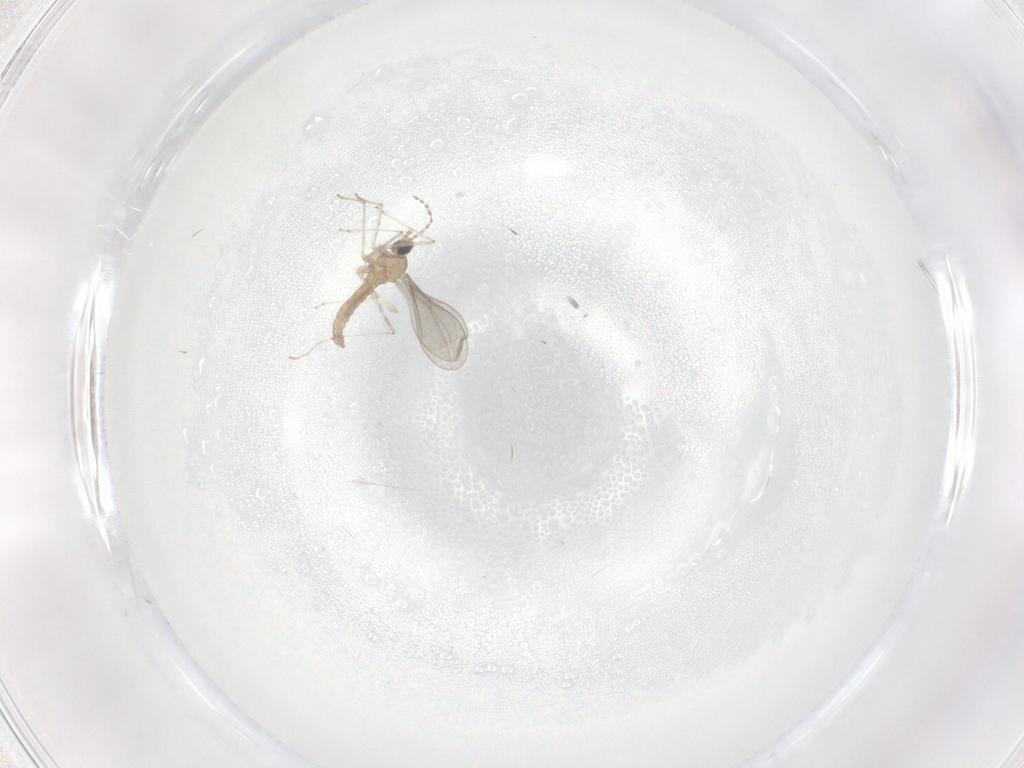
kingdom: Animalia
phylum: Arthropoda
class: Insecta
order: Diptera
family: Cecidomyiidae
